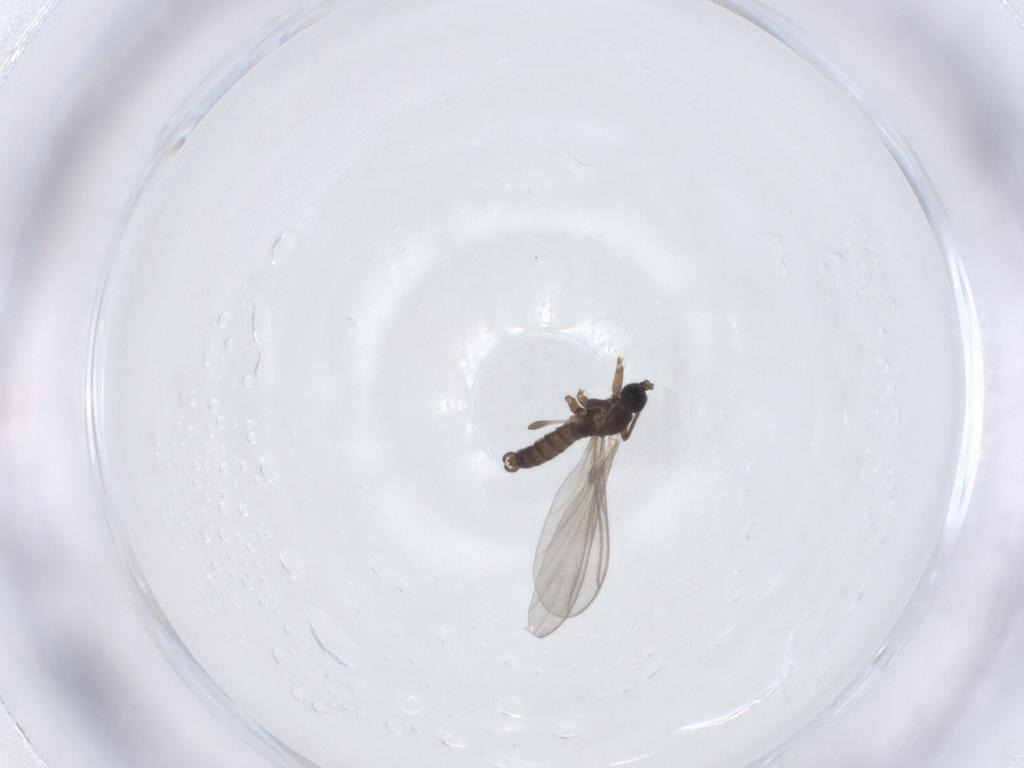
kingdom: Animalia
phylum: Arthropoda
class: Insecta
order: Diptera
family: Sciaridae
